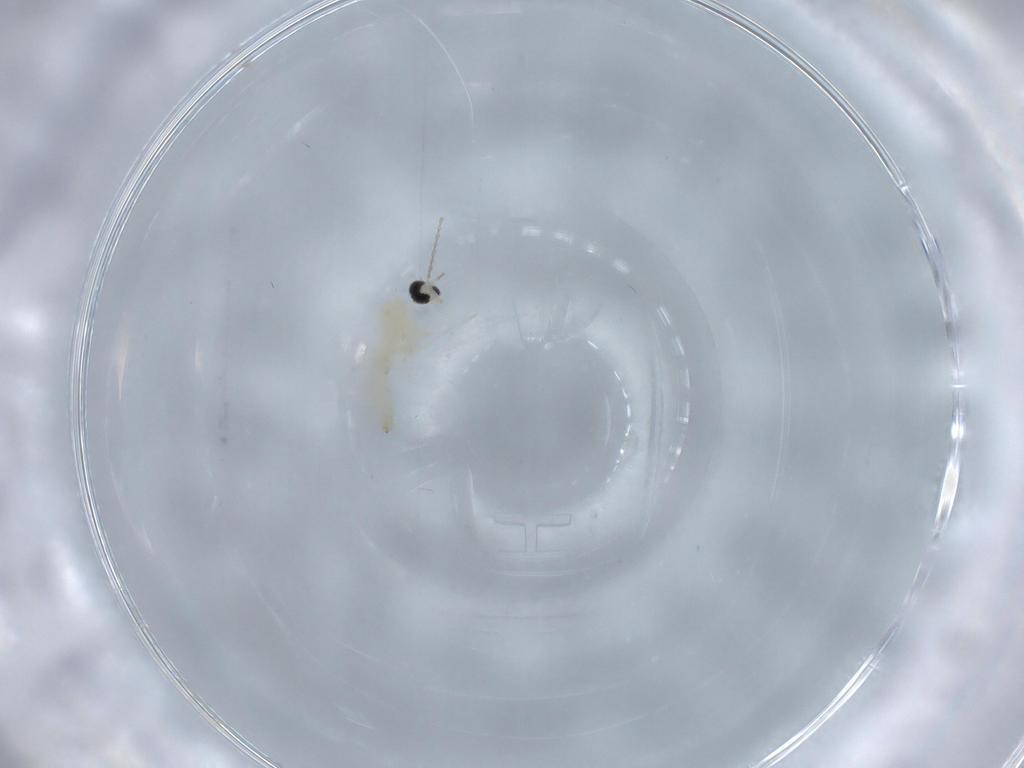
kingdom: Animalia
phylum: Arthropoda
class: Insecta
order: Diptera
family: Cecidomyiidae
